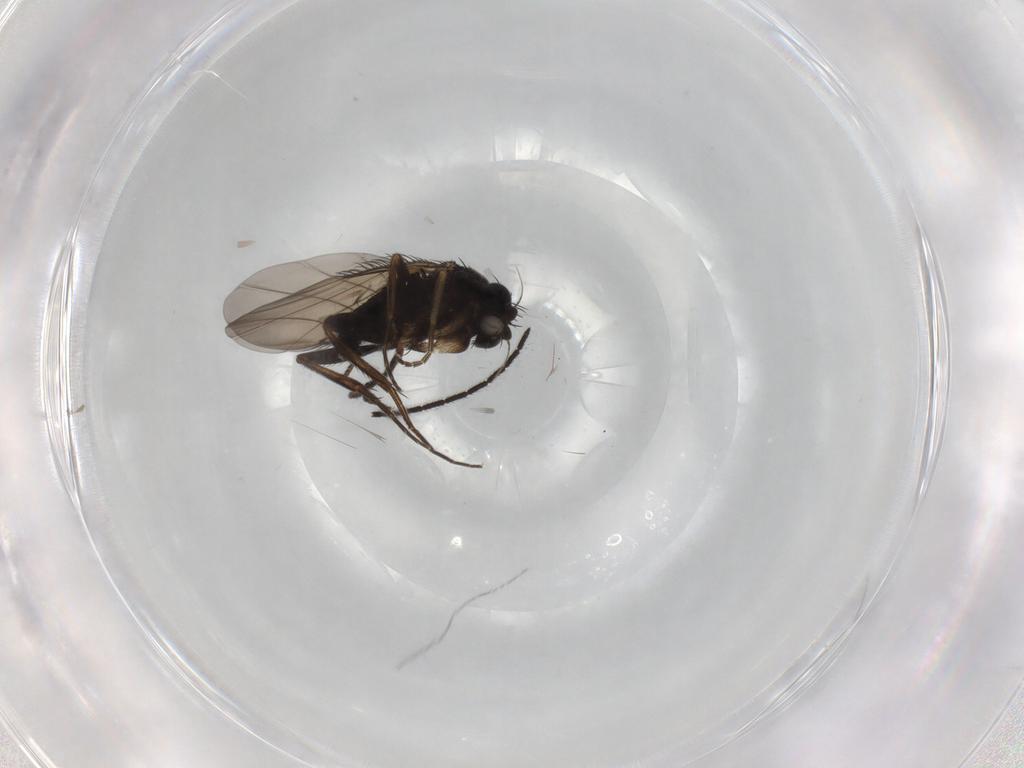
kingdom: Animalia
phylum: Arthropoda
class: Insecta
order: Diptera
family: Phoridae
